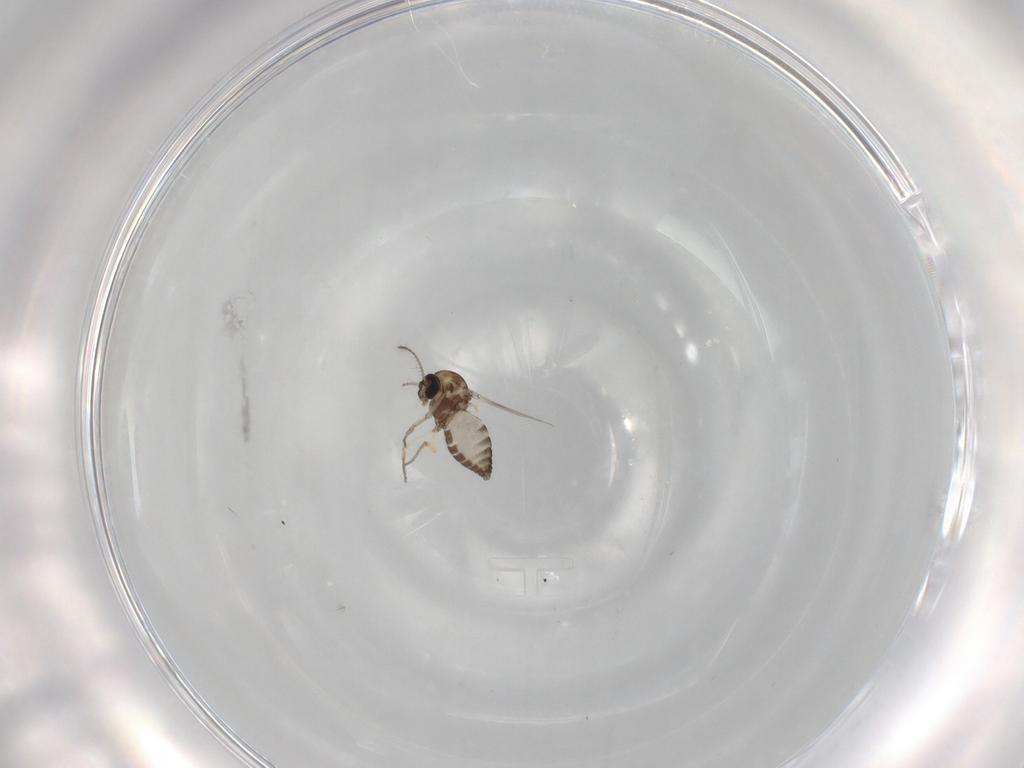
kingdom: Animalia
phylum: Arthropoda
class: Insecta
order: Diptera
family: Ceratopogonidae
